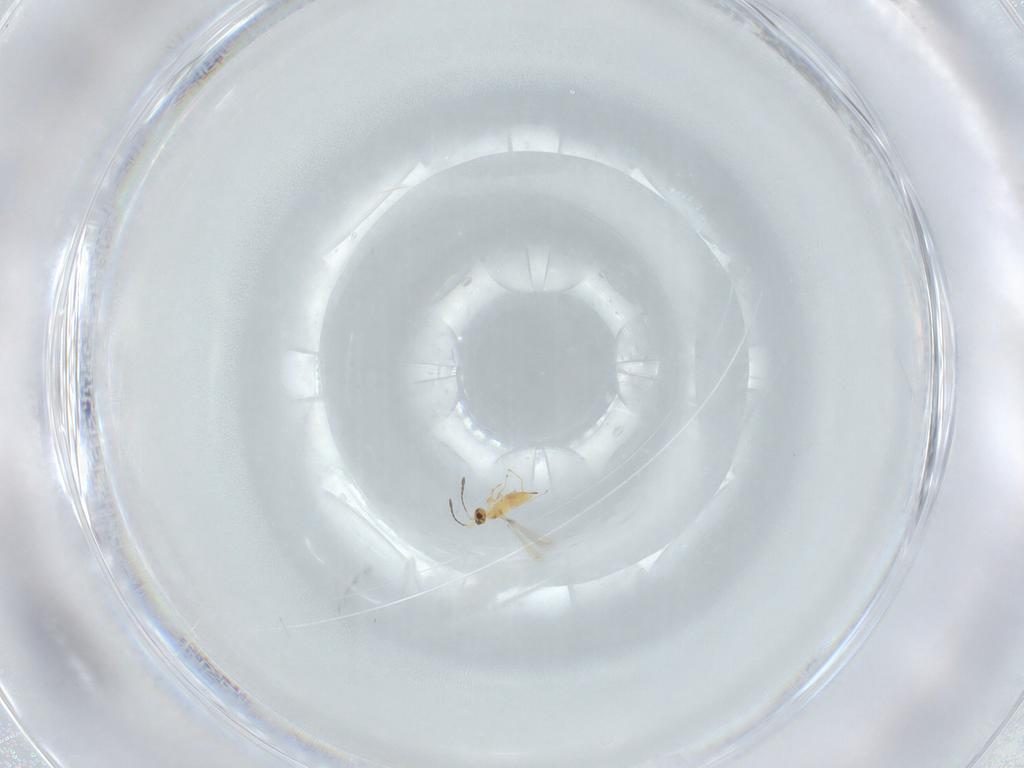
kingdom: Animalia
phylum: Arthropoda
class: Insecta
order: Hymenoptera
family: Mymaridae
